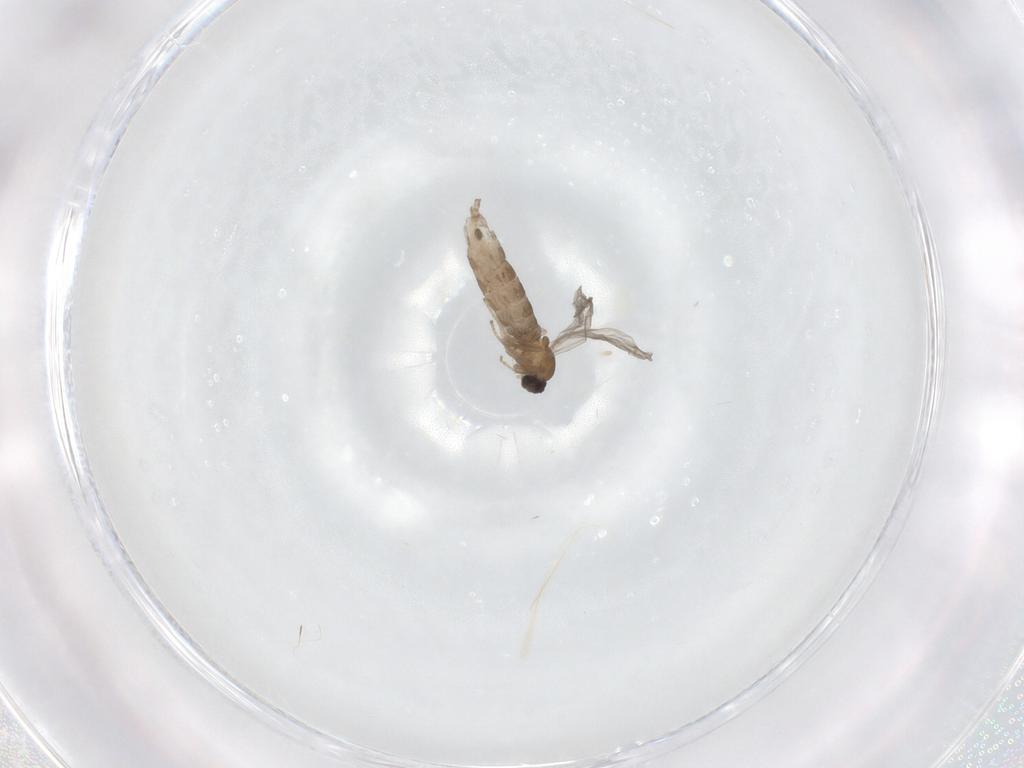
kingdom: Animalia
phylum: Arthropoda
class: Insecta
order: Diptera
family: Cecidomyiidae
